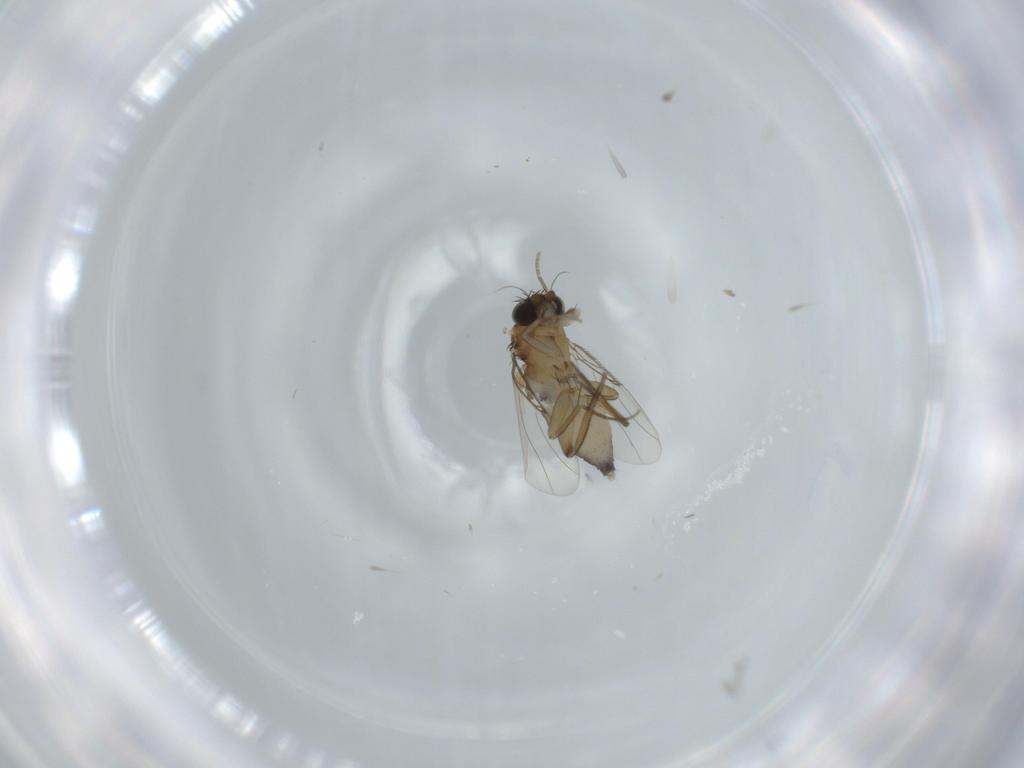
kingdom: Animalia
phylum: Arthropoda
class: Insecta
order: Diptera
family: Phoridae
